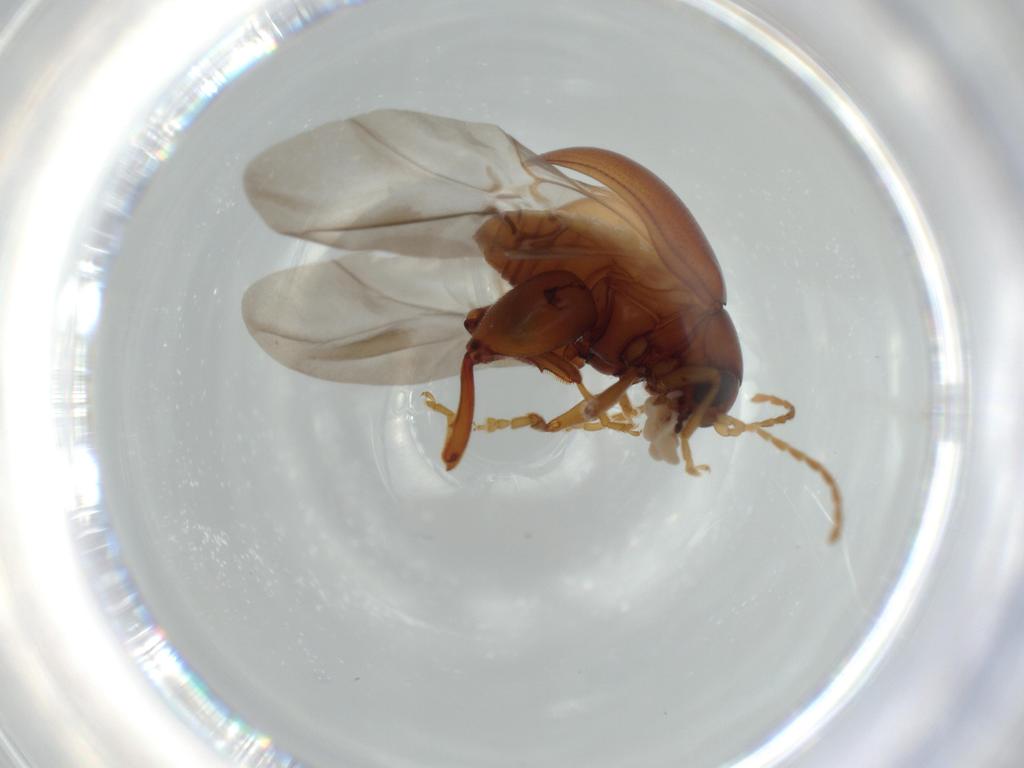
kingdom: Animalia
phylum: Arthropoda
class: Insecta
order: Coleoptera
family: Chrysomelidae
